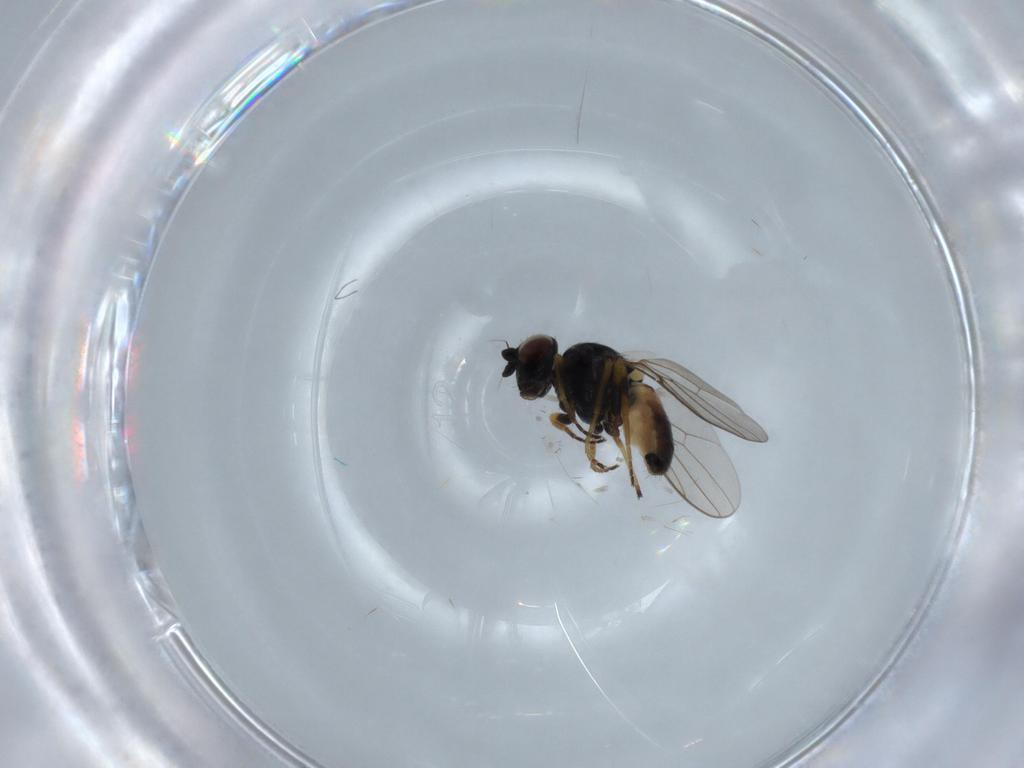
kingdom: Animalia
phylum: Arthropoda
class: Insecta
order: Diptera
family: Chloropidae
